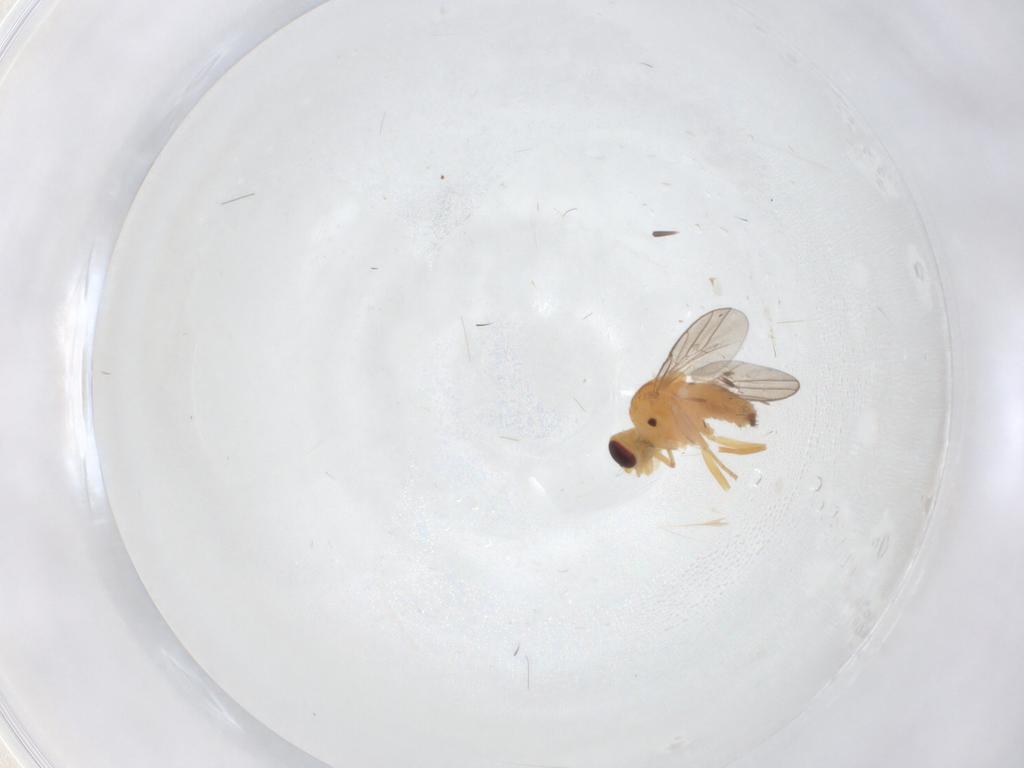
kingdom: Animalia
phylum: Arthropoda
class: Insecta
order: Diptera
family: Chloropidae
